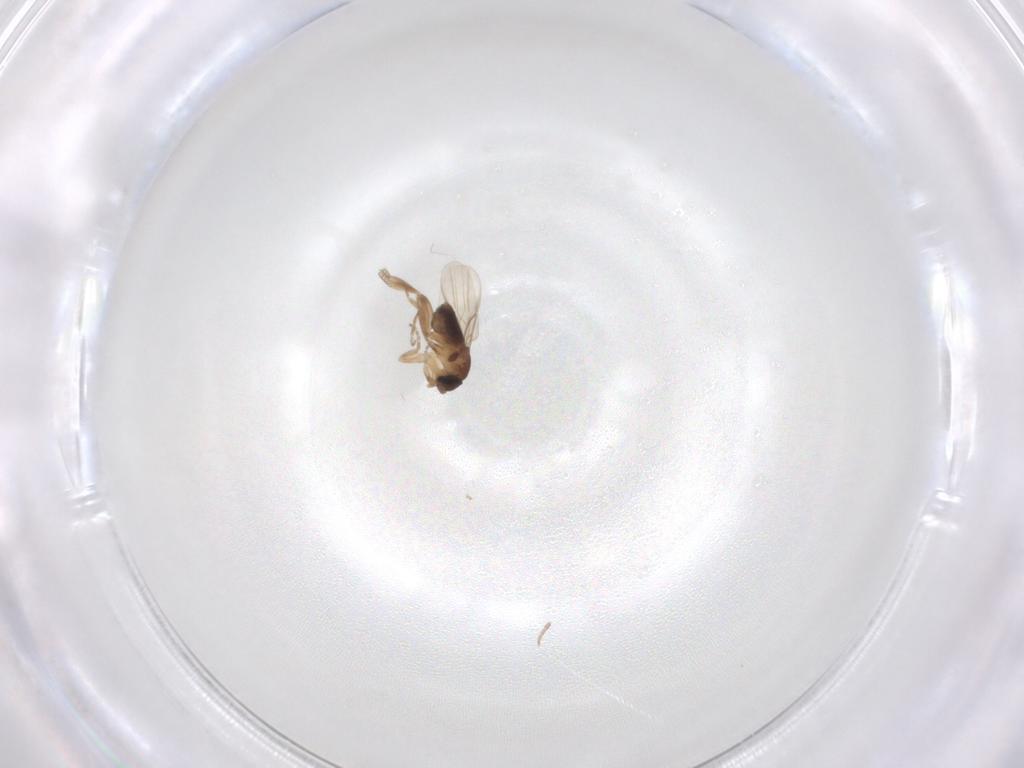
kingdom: Animalia
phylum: Arthropoda
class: Insecta
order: Diptera
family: Phoridae
